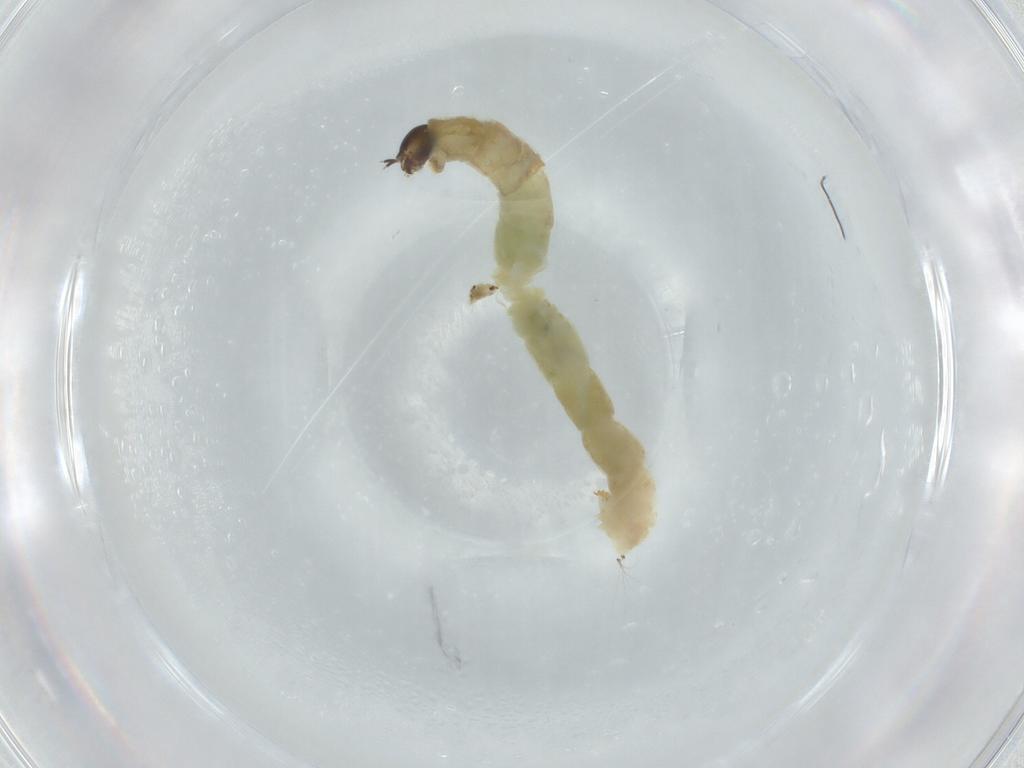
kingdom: Animalia
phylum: Arthropoda
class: Insecta
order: Diptera
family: Chironomidae
